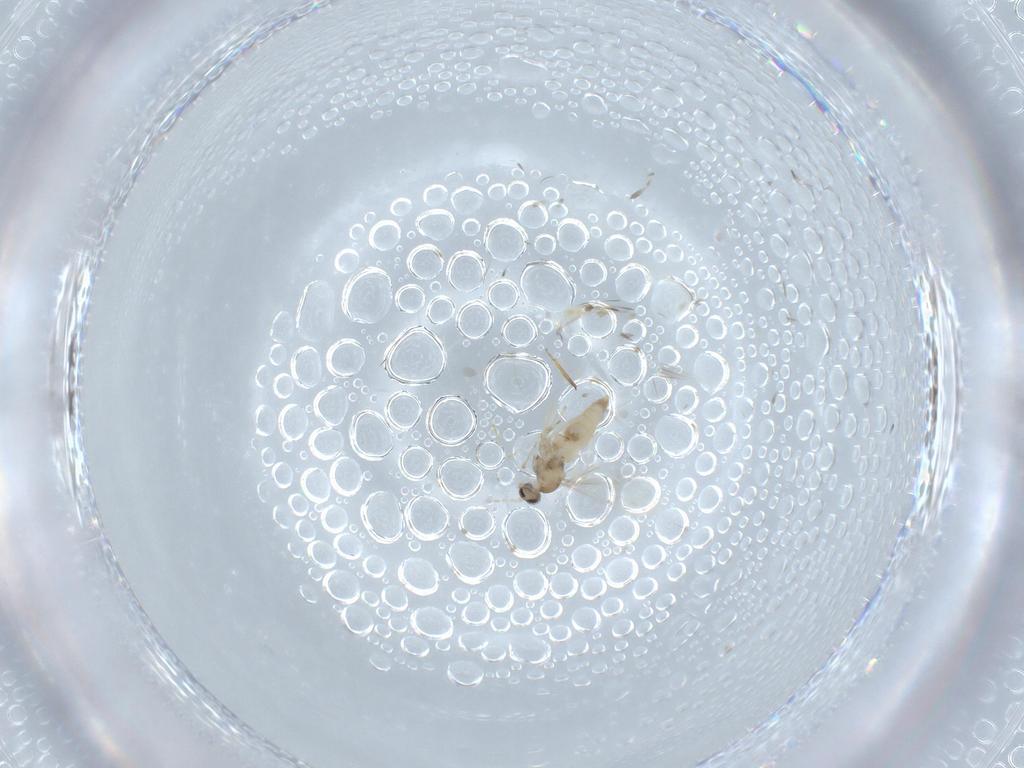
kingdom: Animalia
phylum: Arthropoda
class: Insecta
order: Diptera
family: Cecidomyiidae
